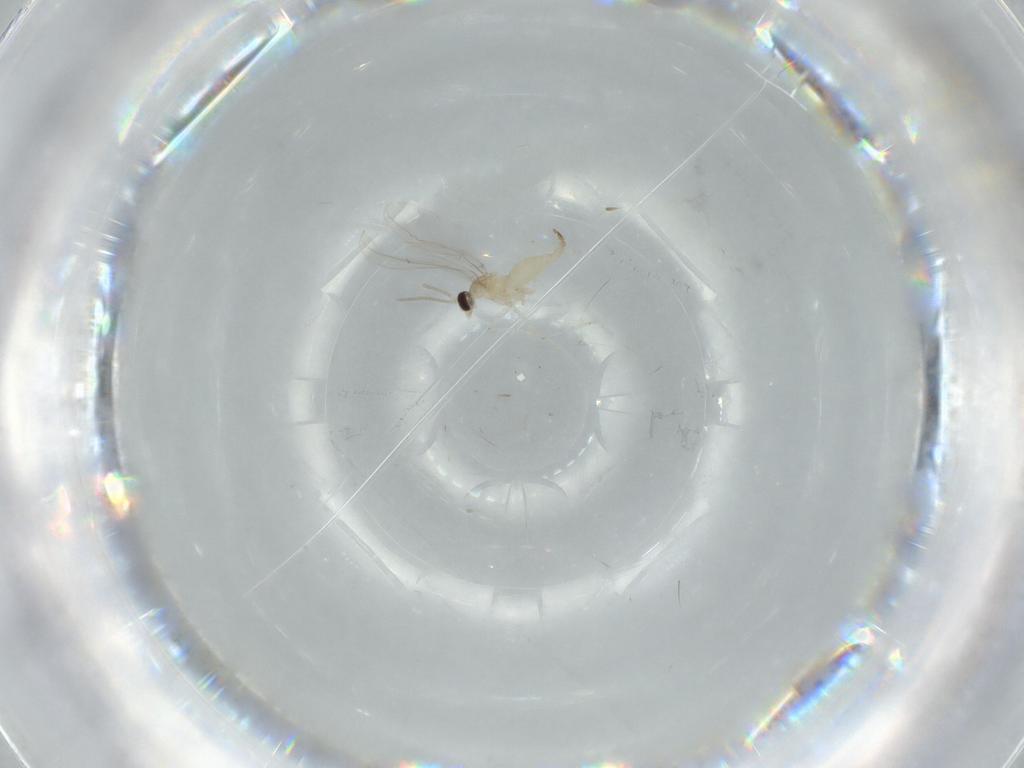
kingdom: Animalia
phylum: Arthropoda
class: Insecta
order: Diptera
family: Cecidomyiidae
